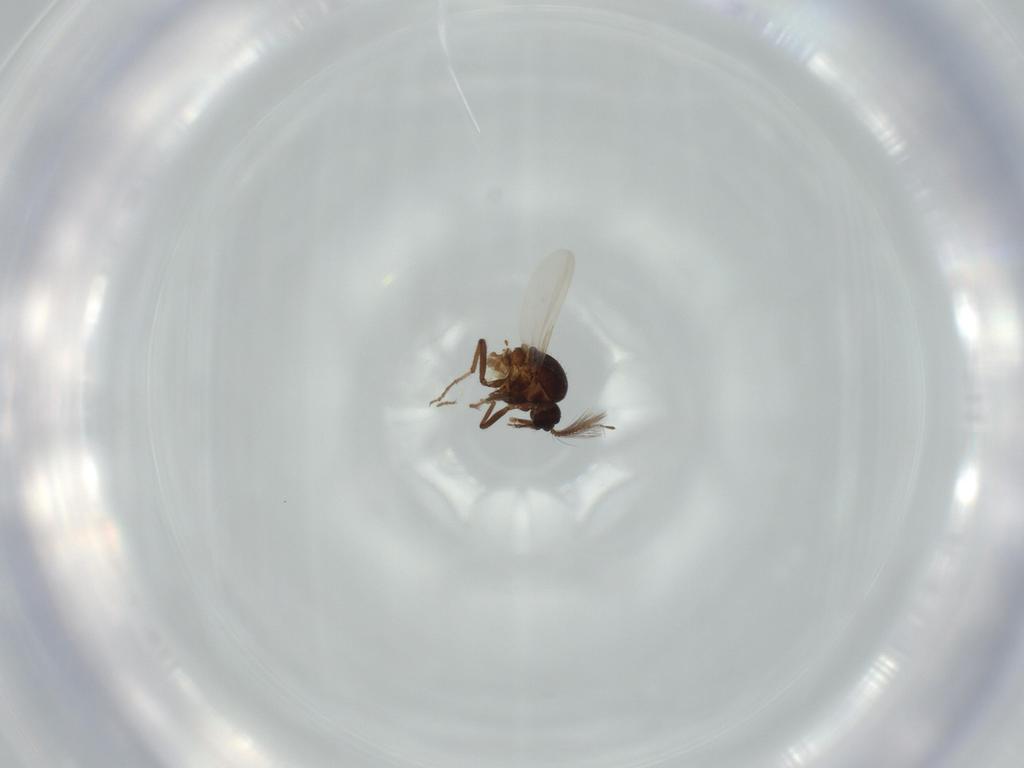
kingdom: Animalia
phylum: Arthropoda
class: Insecta
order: Diptera
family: Ceratopogonidae
